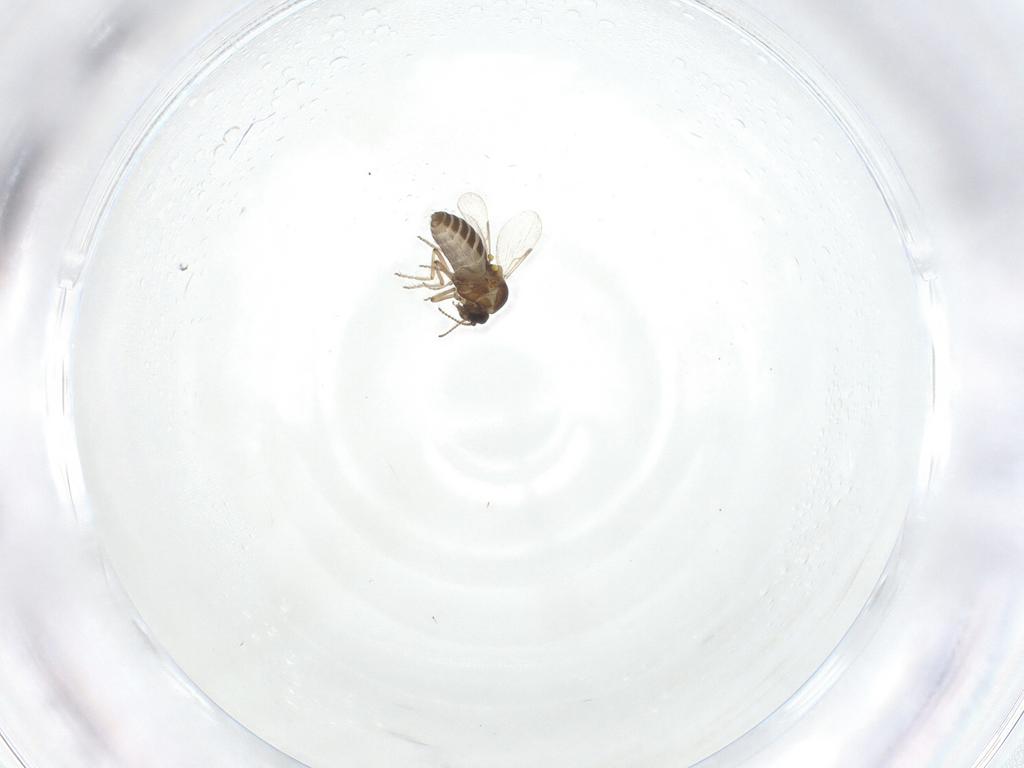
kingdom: Animalia
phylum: Arthropoda
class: Insecta
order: Diptera
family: Ceratopogonidae
